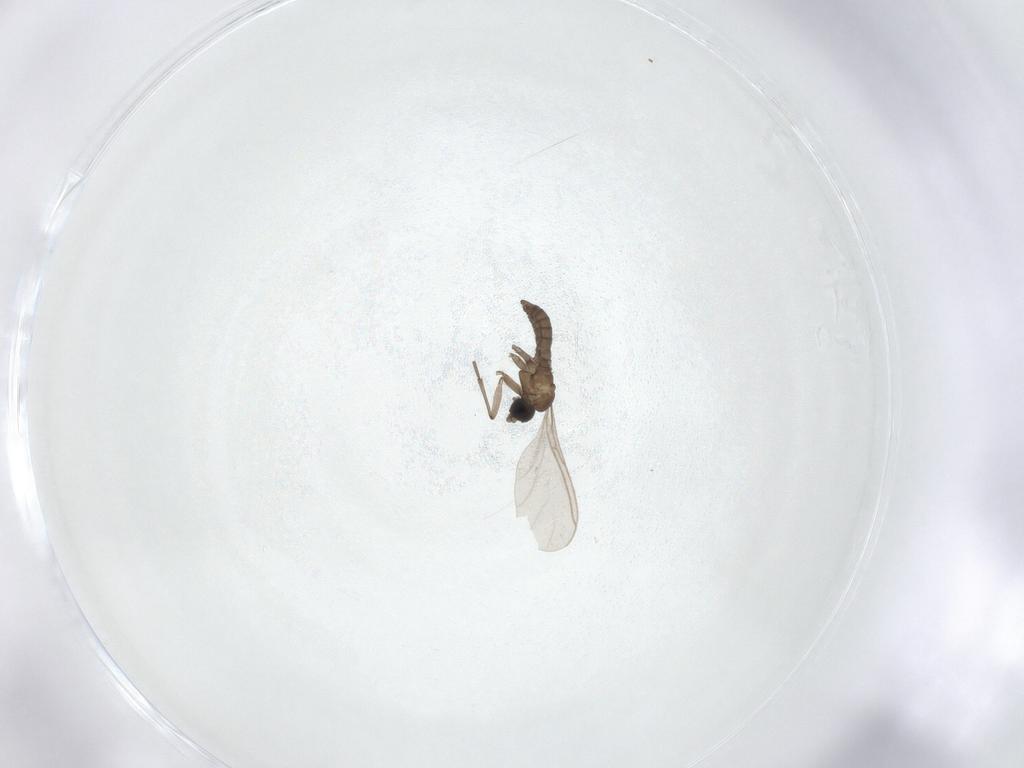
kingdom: Animalia
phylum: Arthropoda
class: Insecta
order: Diptera
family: Sciaridae
